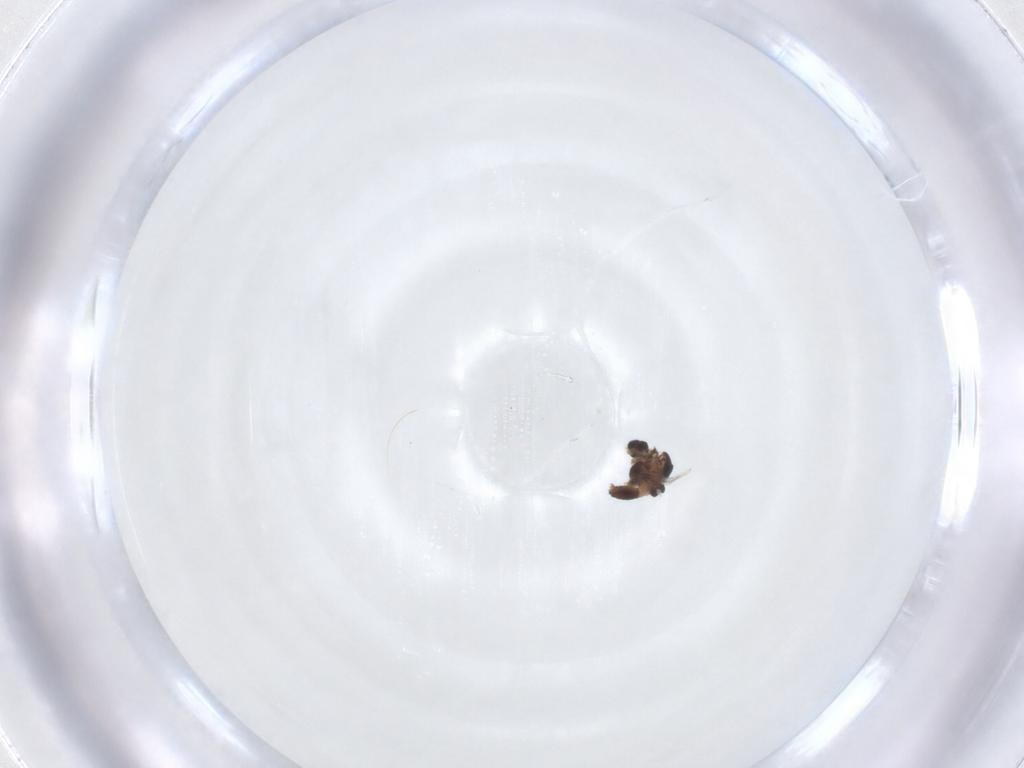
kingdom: Animalia
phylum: Arthropoda
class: Insecta
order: Diptera
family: Chironomidae
